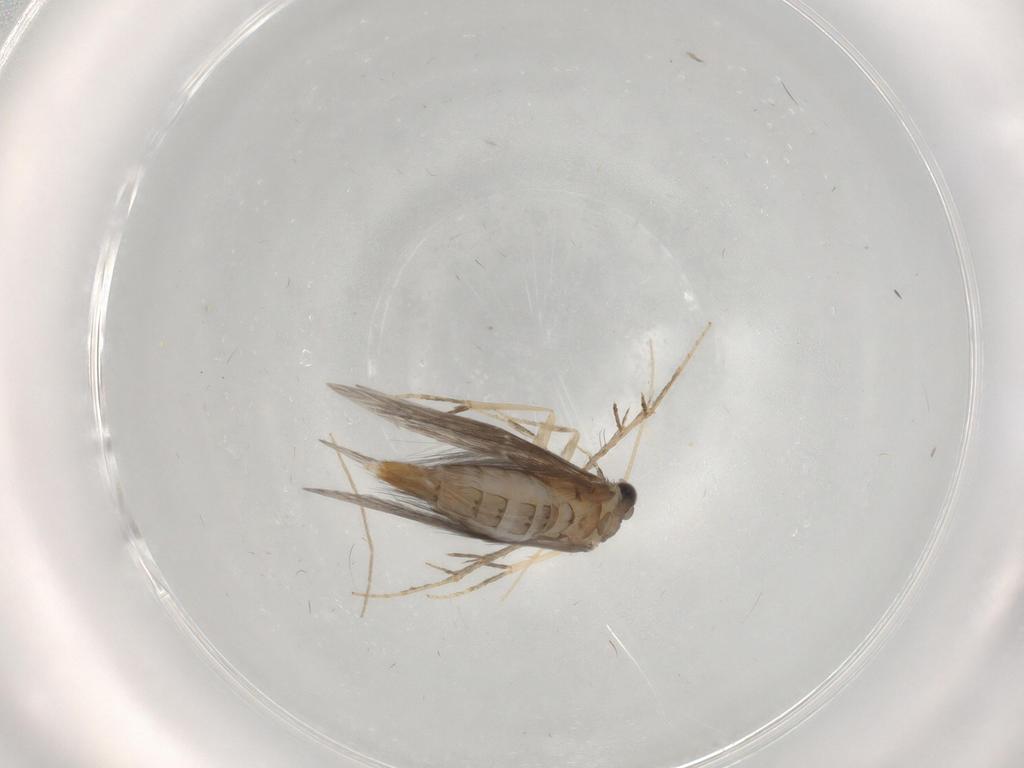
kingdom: Animalia
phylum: Arthropoda
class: Insecta
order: Trichoptera
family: Hydroptilidae
